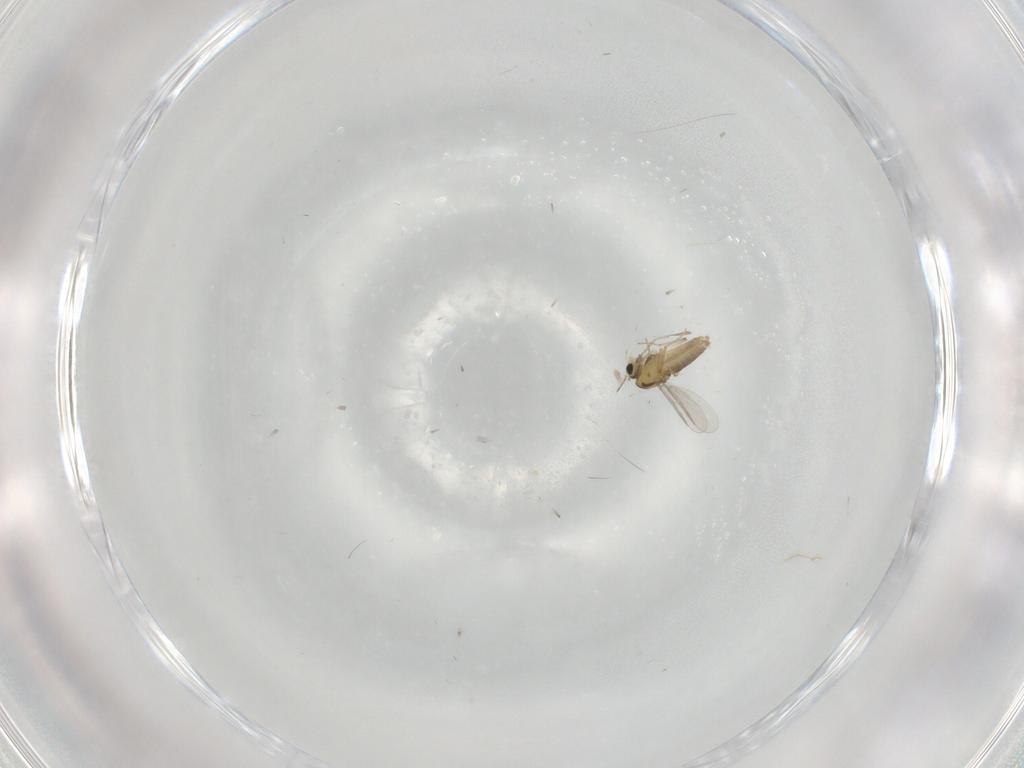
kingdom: Animalia
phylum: Arthropoda
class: Insecta
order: Diptera
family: Chironomidae
